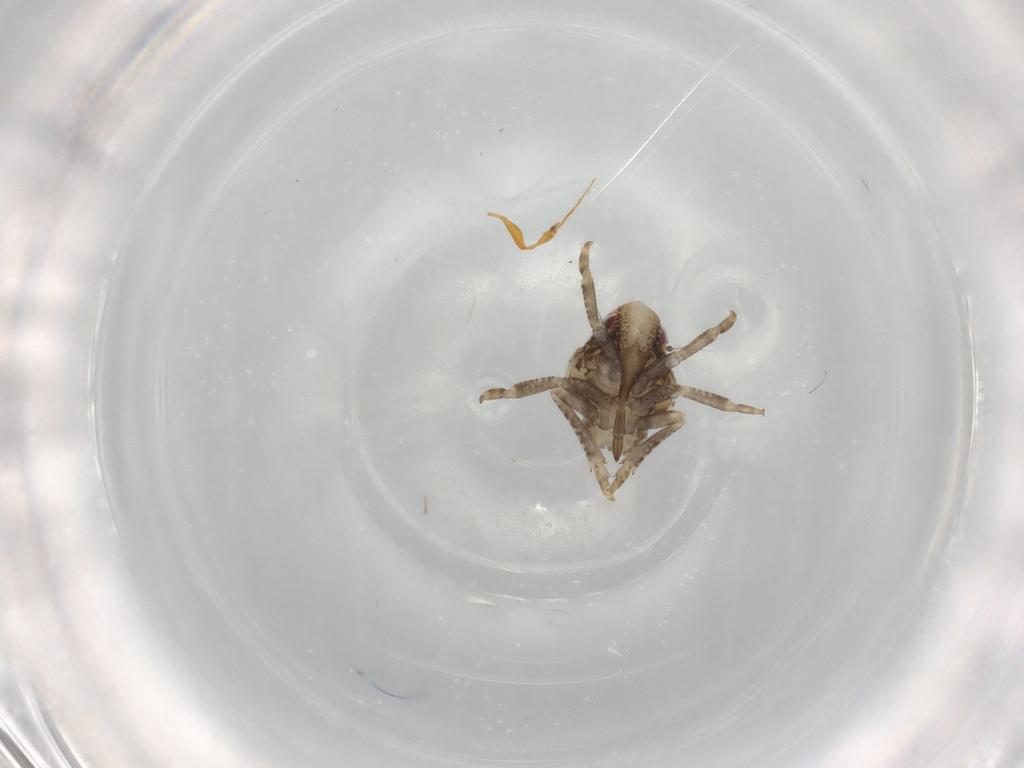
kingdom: Animalia
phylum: Arthropoda
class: Insecta
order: Hemiptera
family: Acanaloniidae
